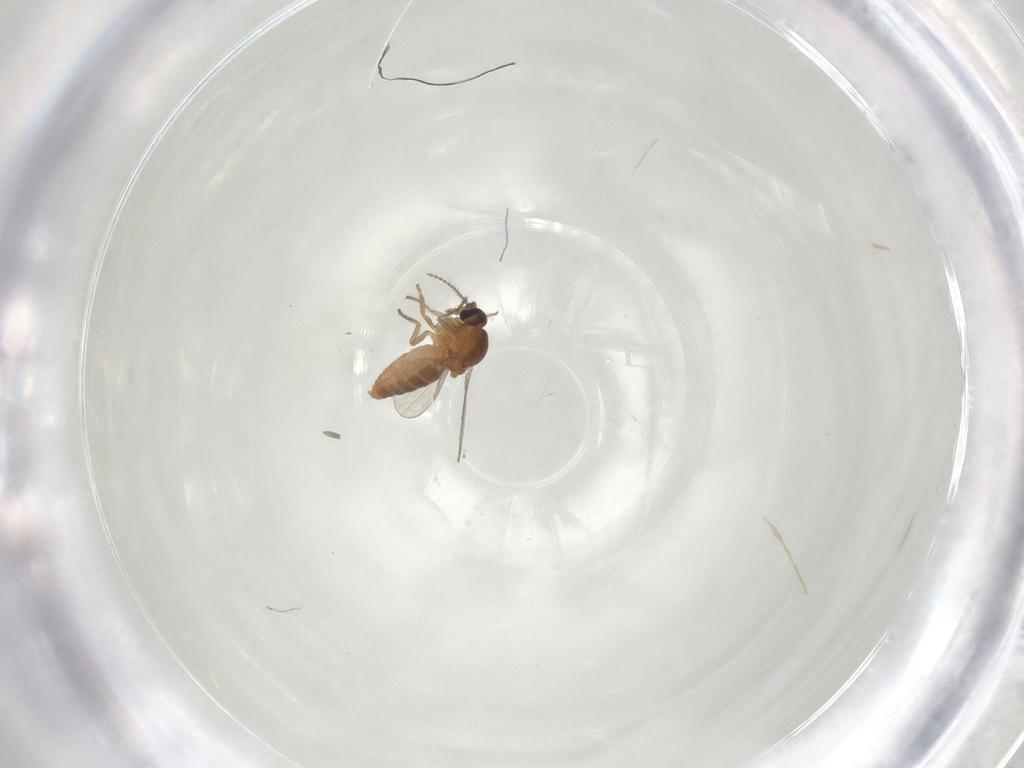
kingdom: Animalia
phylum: Arthropoda
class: Insecta
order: Diptera
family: Ceratopogonidae
